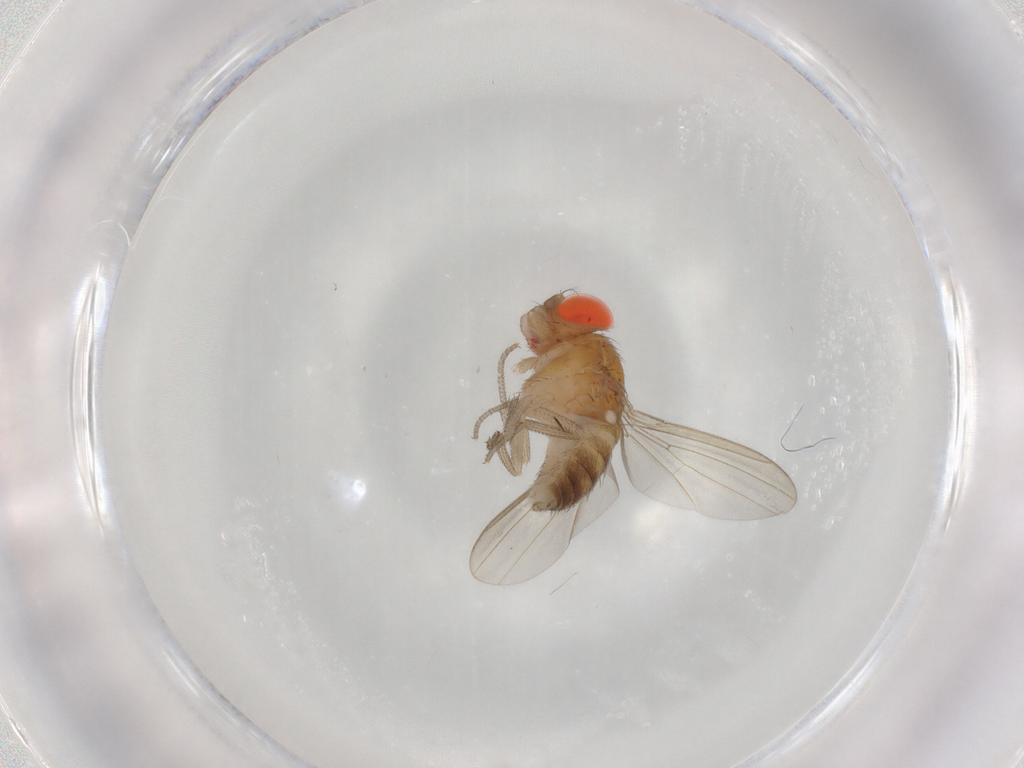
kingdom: Animalia
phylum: Arthropoda
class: Insecta
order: Diptera
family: Drosophilidae
